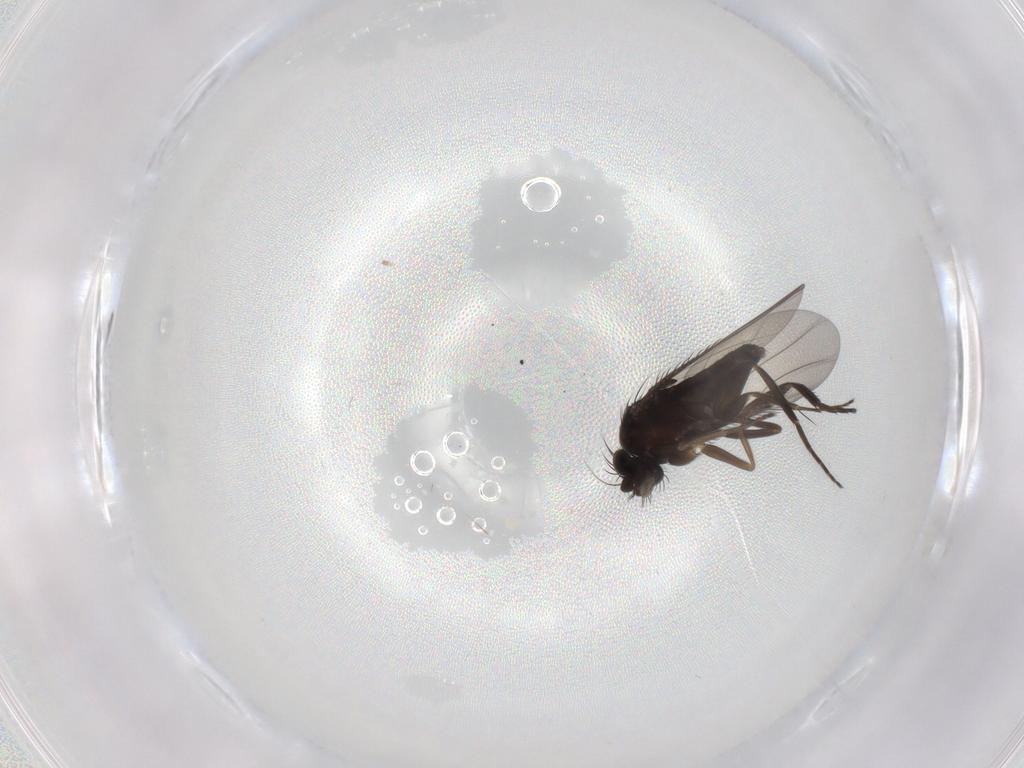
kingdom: Animalia
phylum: Arthropoda
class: Insecta
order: Diptera
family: Phoridae
